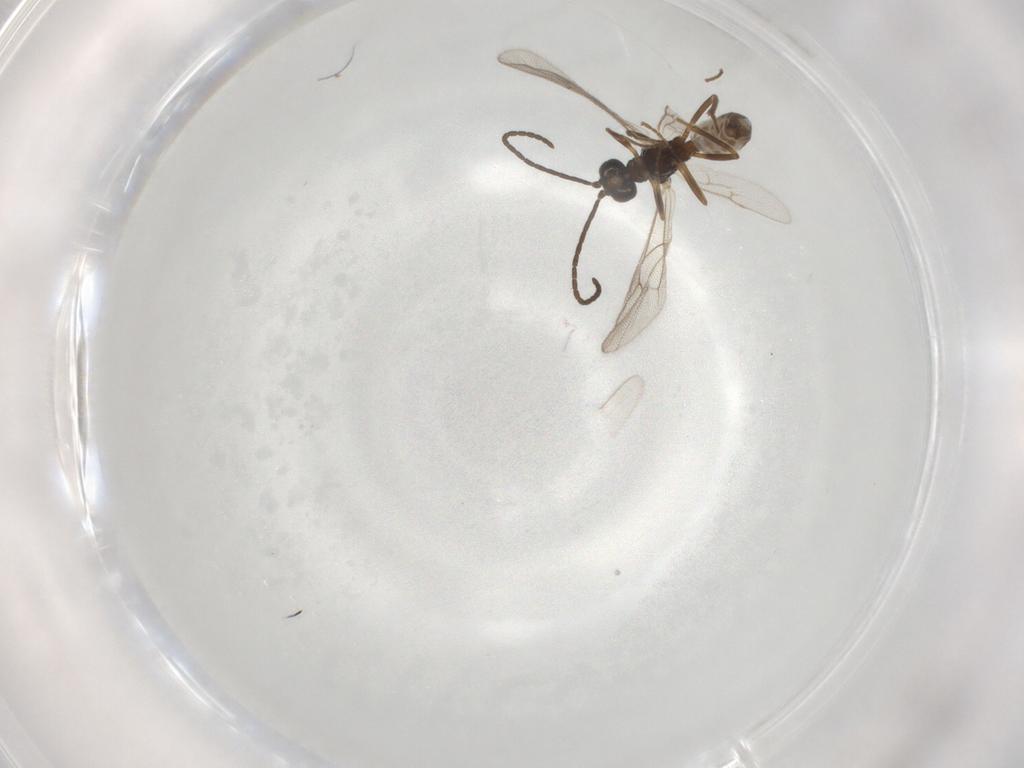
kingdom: Animalia
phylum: Arthropoda
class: Insecta
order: Hymenoptera
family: Ichneumonidae
